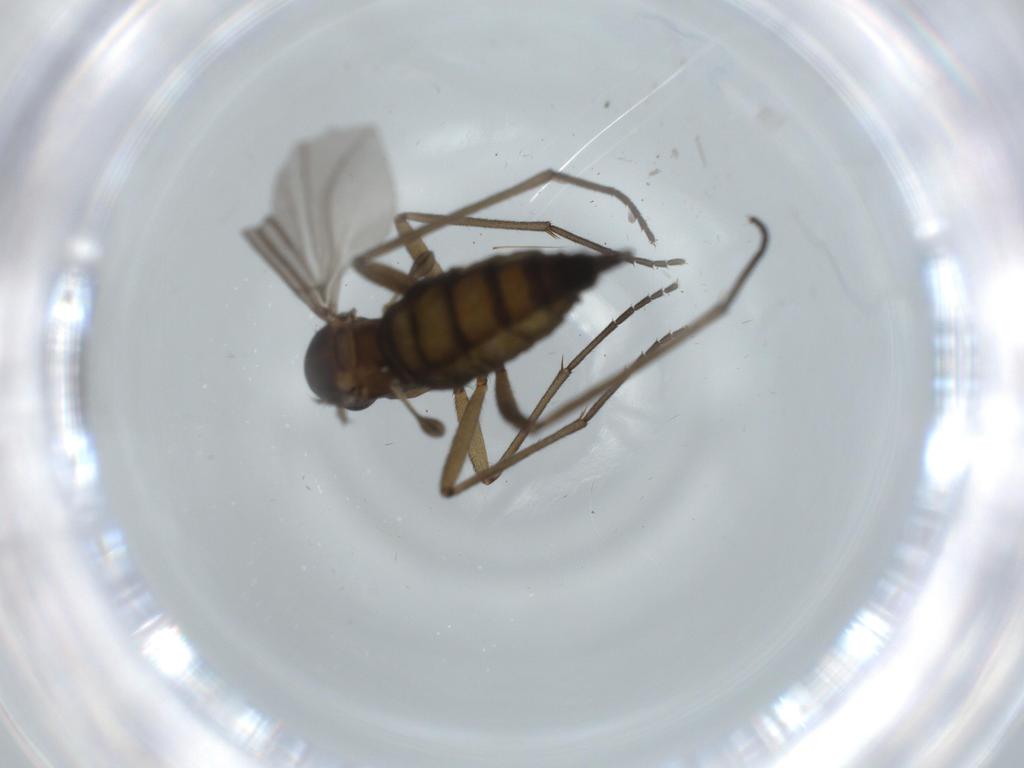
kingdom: Animalia
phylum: Arthropoda
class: Insecta
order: Diptera
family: Sciaridae
